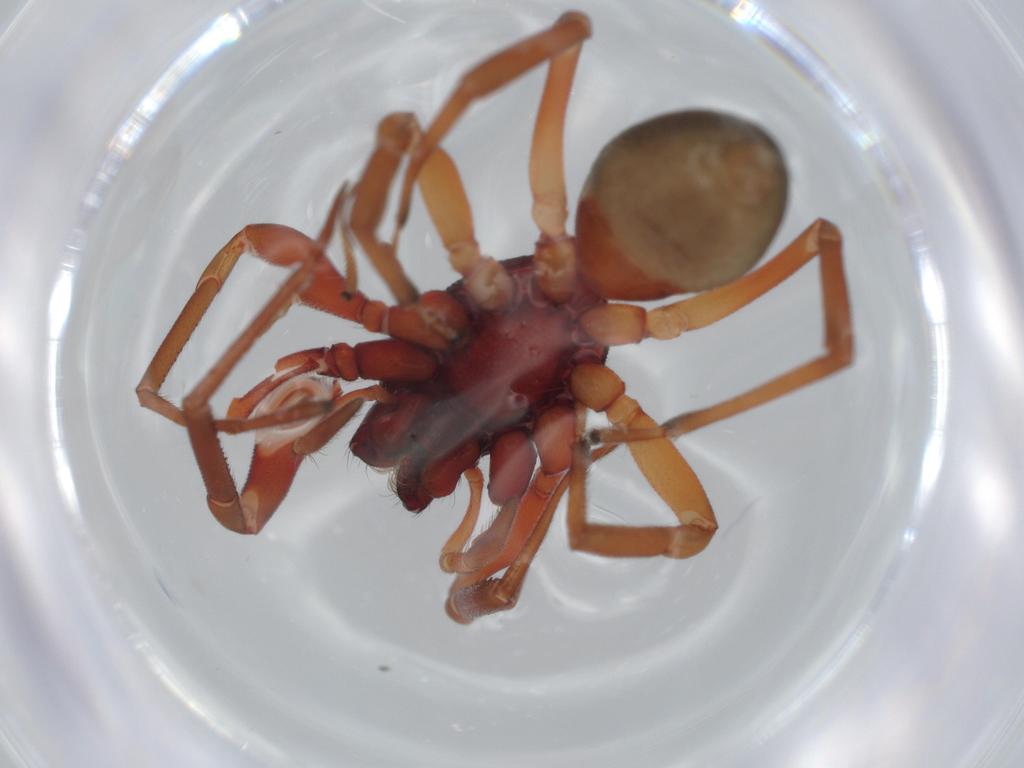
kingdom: Animalia
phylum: Arthropoda
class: Arachnida
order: Araneae
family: Trachelidae
